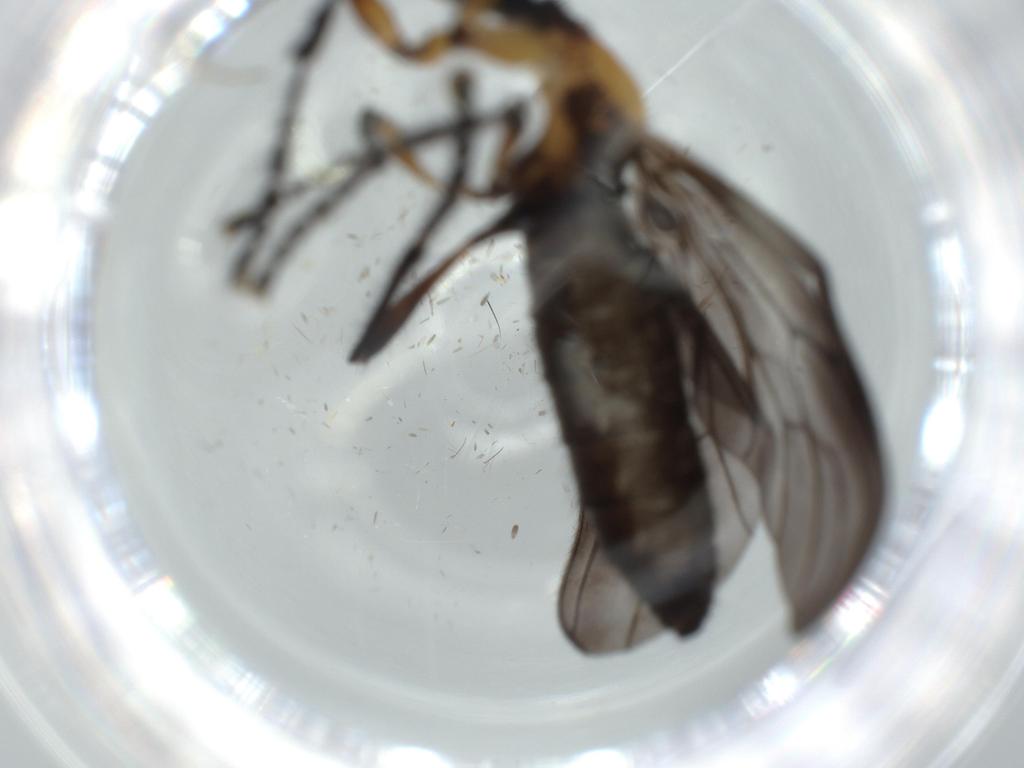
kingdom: Animalia
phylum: Arthropoda
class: Insecta
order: Diptera
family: Bibionidae
